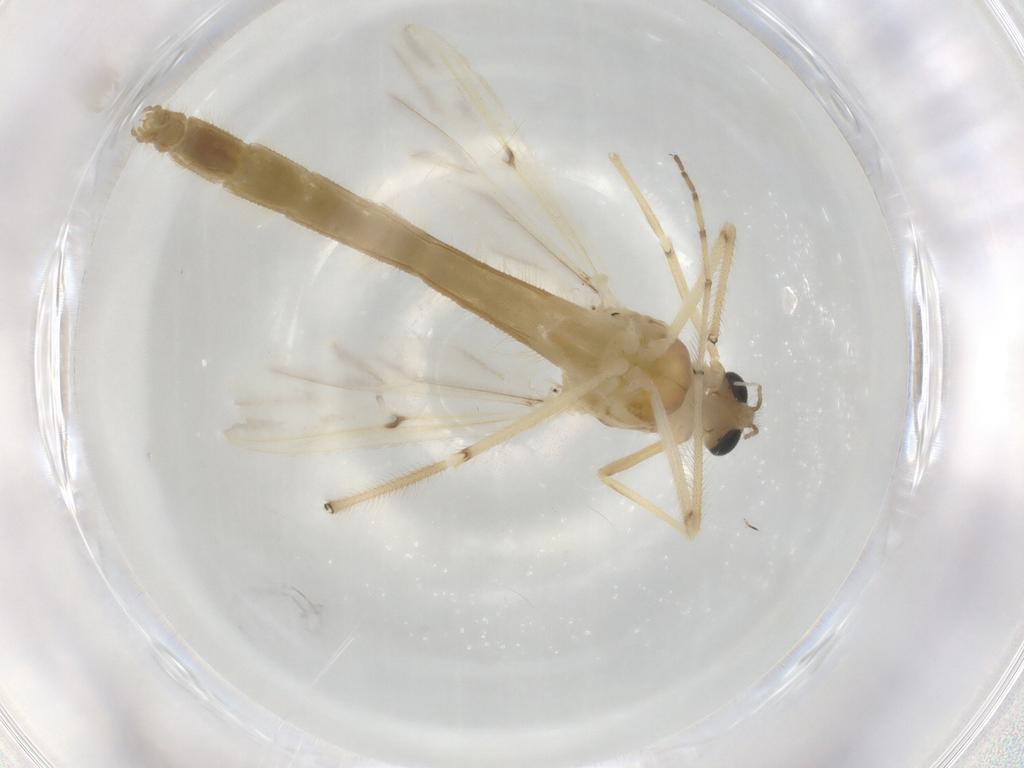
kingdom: Animalia
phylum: Arthropoda
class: Insecta
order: Diptera
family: Chironomidae
